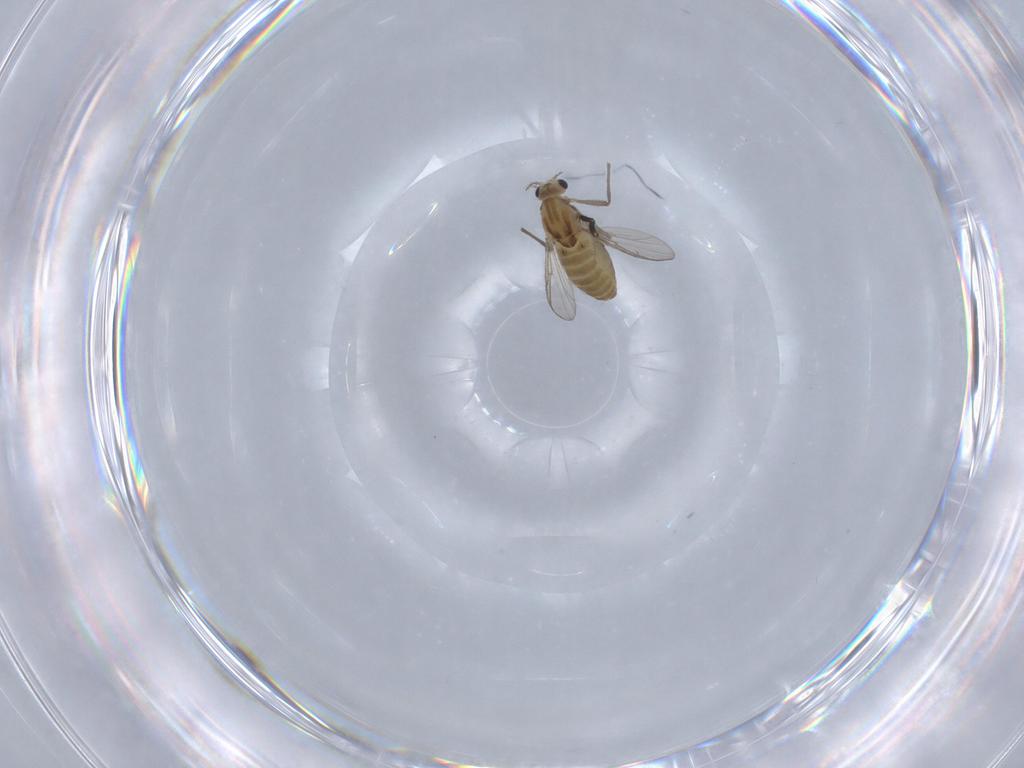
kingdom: Animalia
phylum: Arthropoda
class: Insecta
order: Diptera
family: Chironomidae
